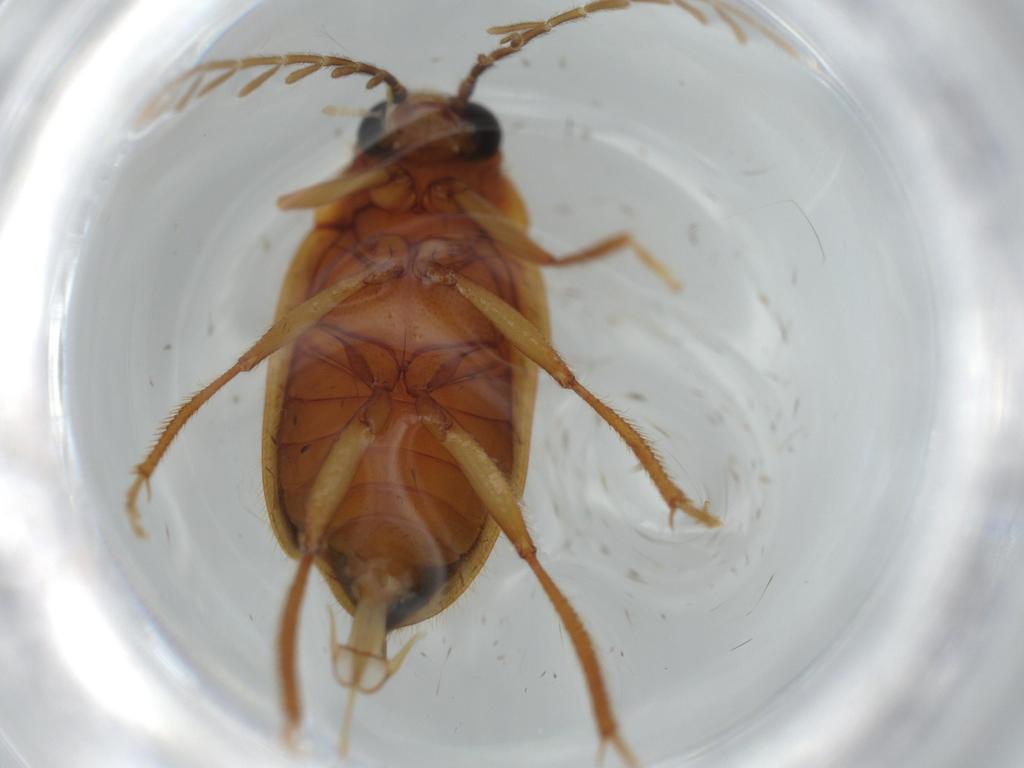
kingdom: Animalia
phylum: Arthropoda
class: Insecta
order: Coleoptera
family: Ptilodactylidae
